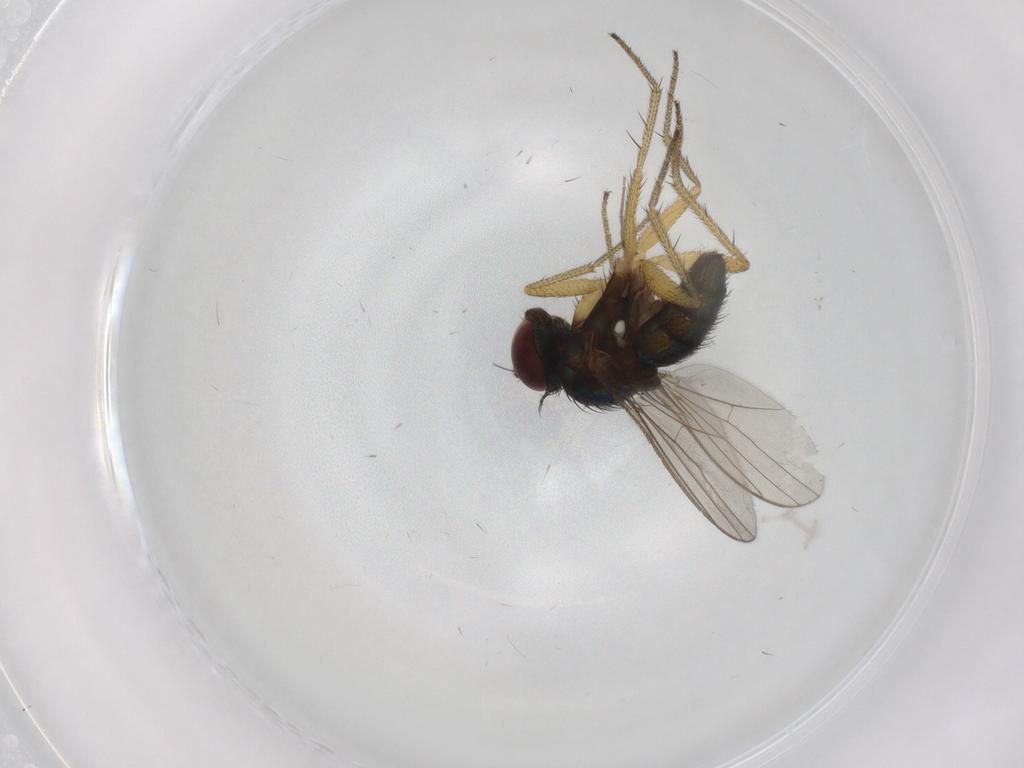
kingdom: Animalia
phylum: Arthropoda
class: Insecta
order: Diptera
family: Dolichopodidae
